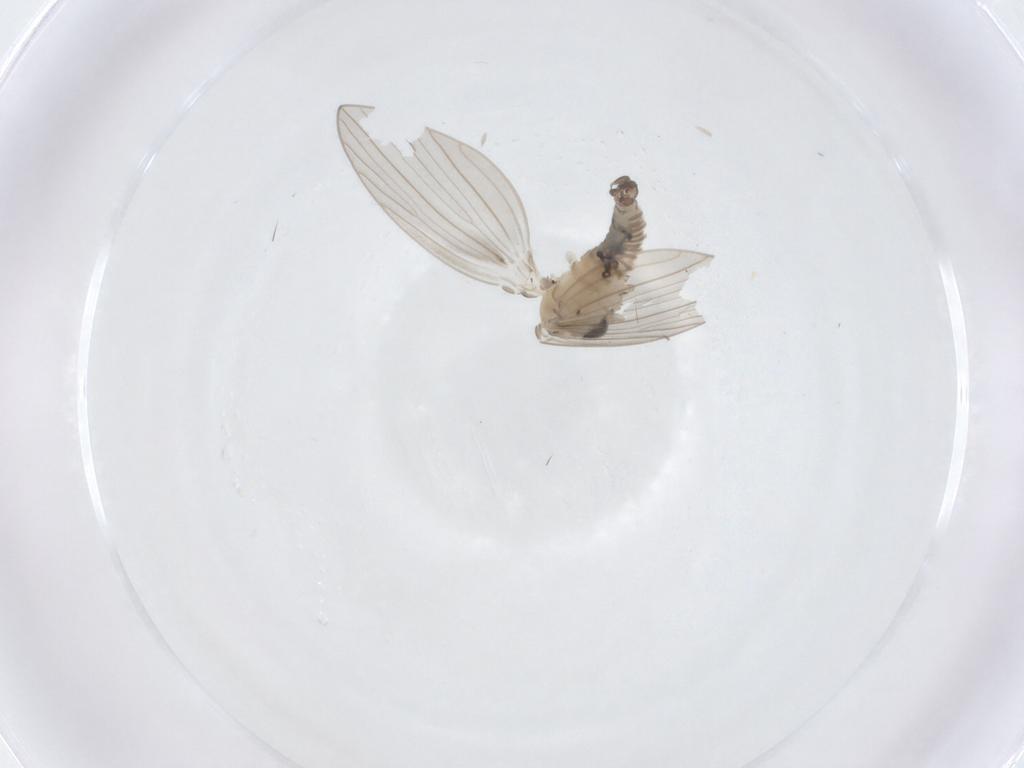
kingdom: Animalia
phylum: Arthropoda
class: Insecta
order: Diptera
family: Psychodidae
